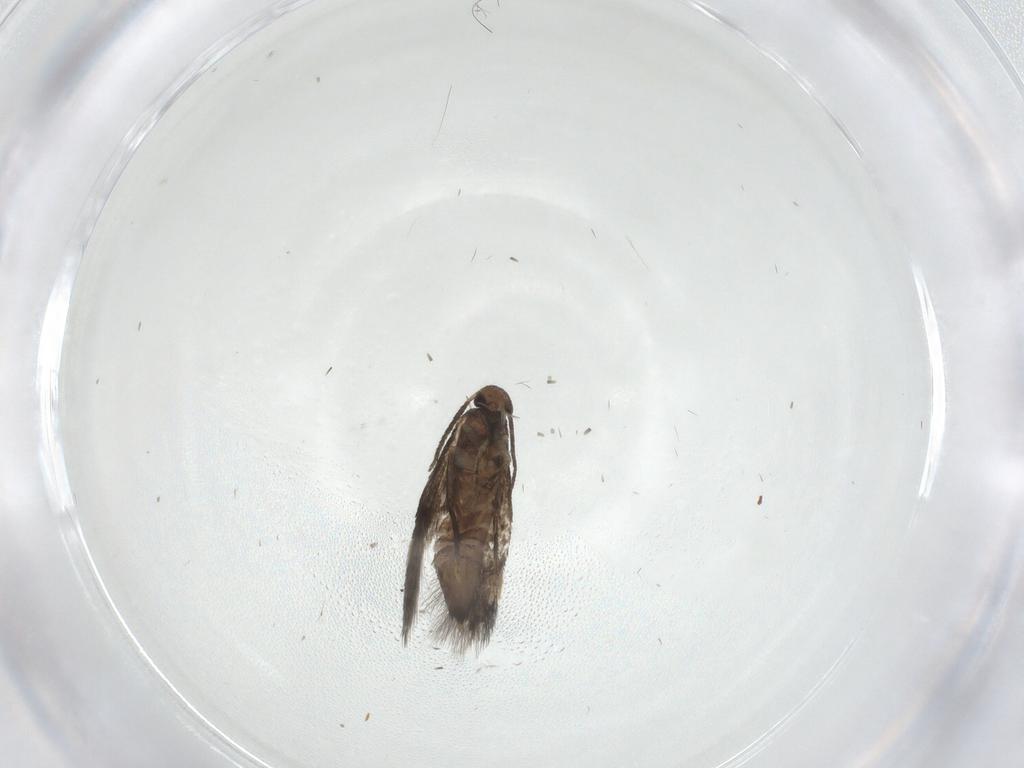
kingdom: Animalia
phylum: Arthropoda
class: Insecta
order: Lepidoptera
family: Heliozelidae
